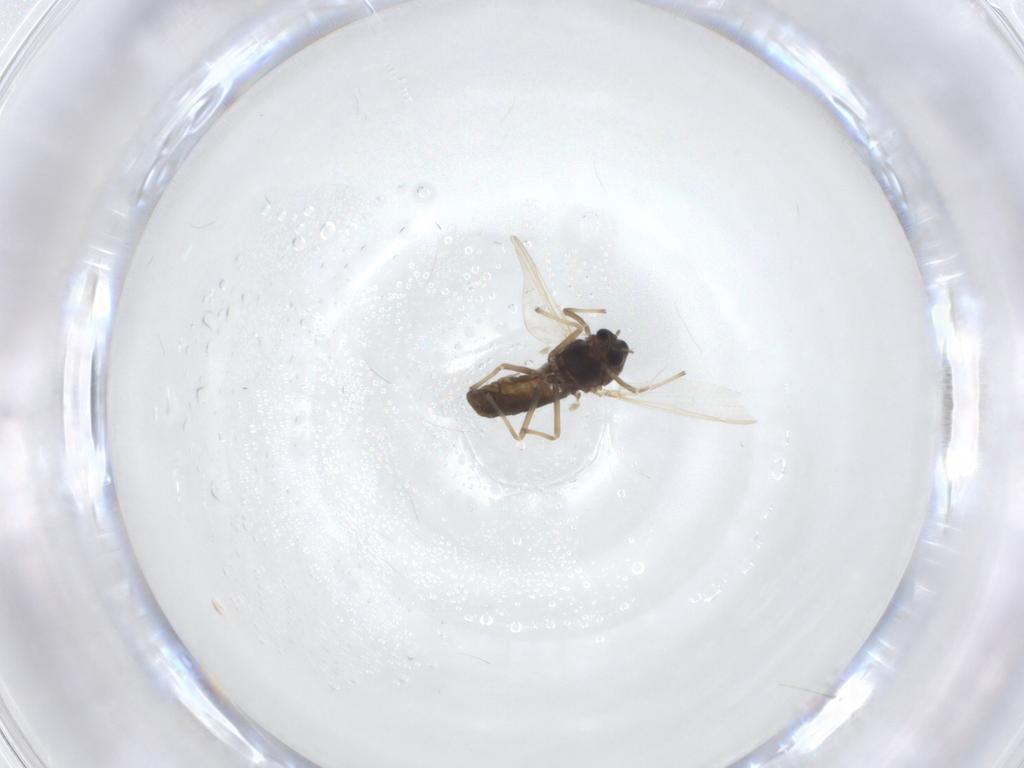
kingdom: Animalia
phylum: Arthropoda
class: Insecta
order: Diptera
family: Chironomidae
